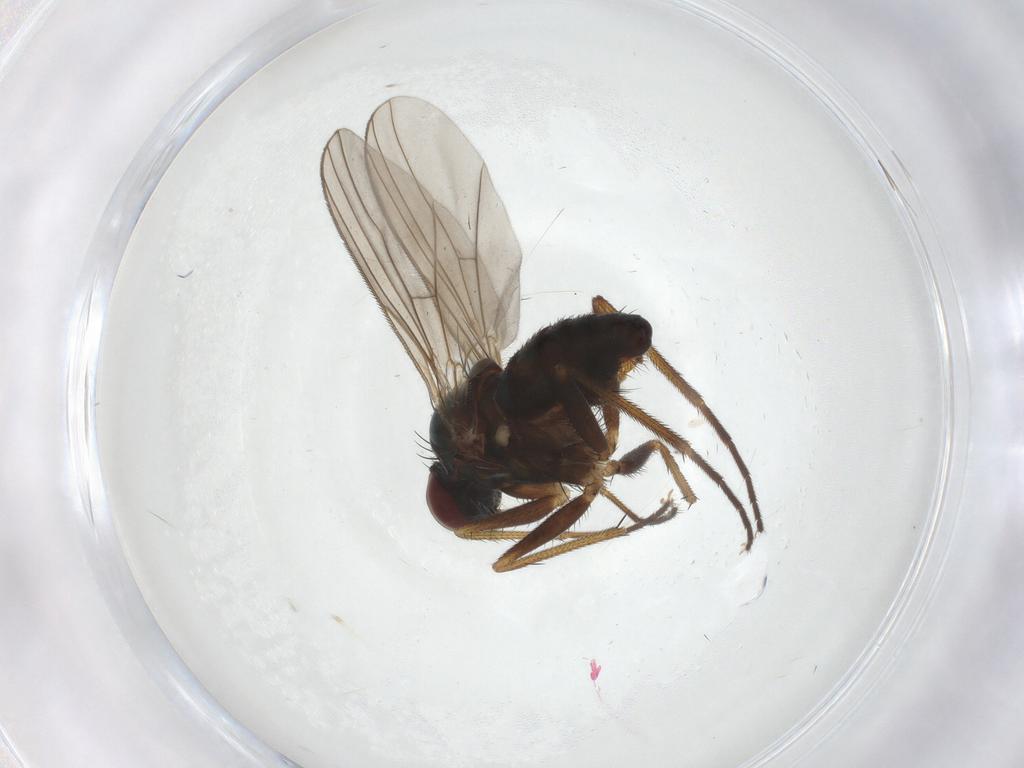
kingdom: Animalia
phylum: Arthropoda
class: Insecta
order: Diptera
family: Dolichopodidae
